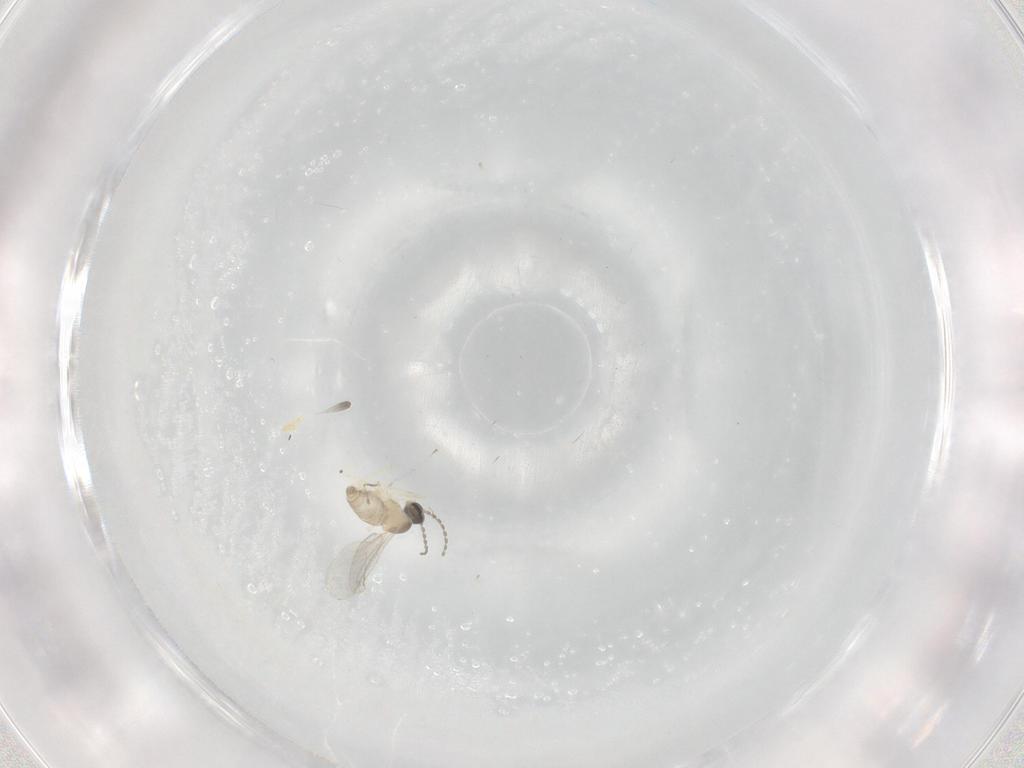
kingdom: Animalia
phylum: Arthropoda
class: Insecta
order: Diptera
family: Cecidomyiidae
